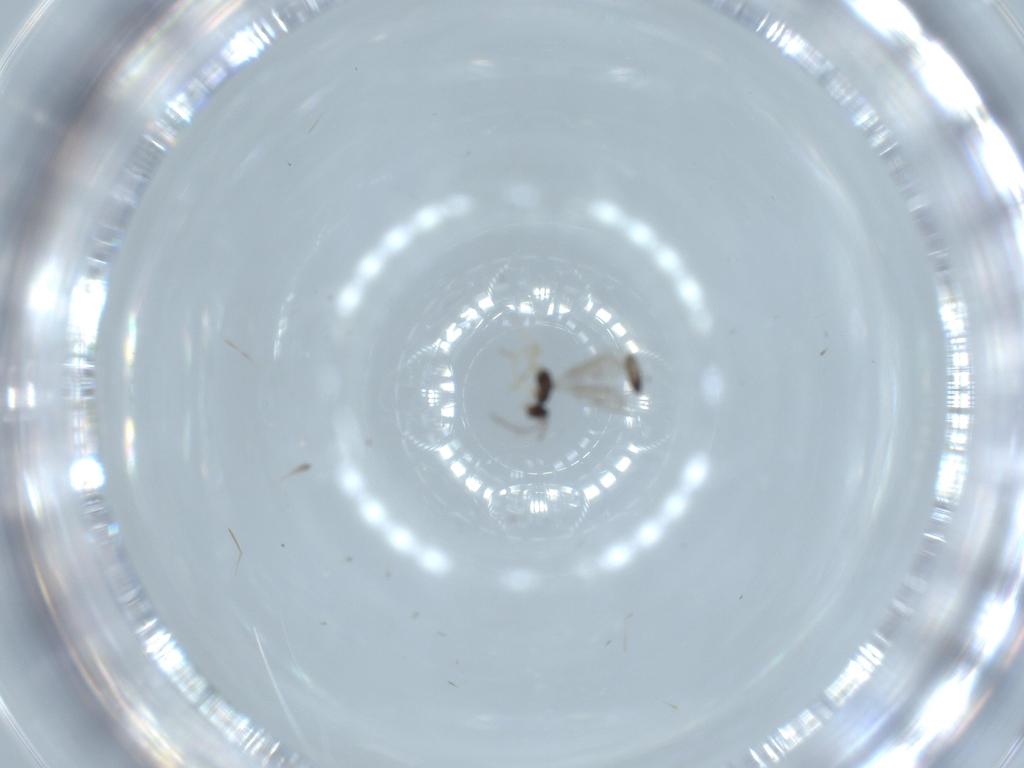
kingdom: Animalia
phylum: Arthropoda
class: Insecta
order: Hymenoptera
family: Pteromalidae
